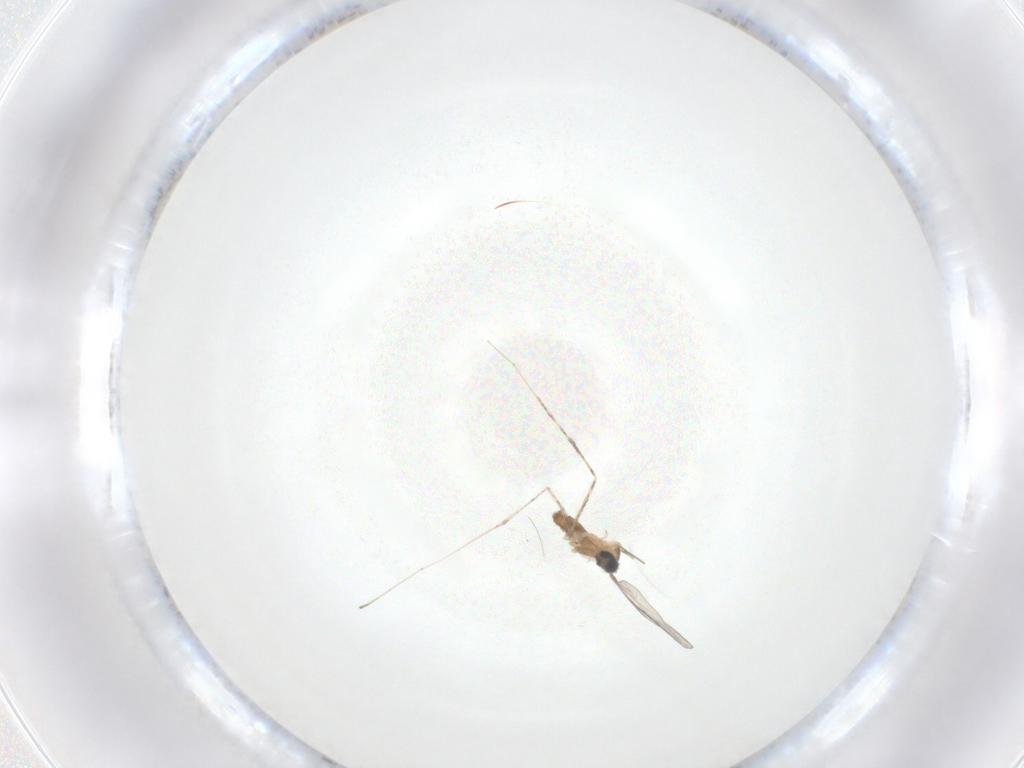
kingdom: Animalia
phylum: Arthropoda
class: Insecta
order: Diptera
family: Cecidomyiidae
